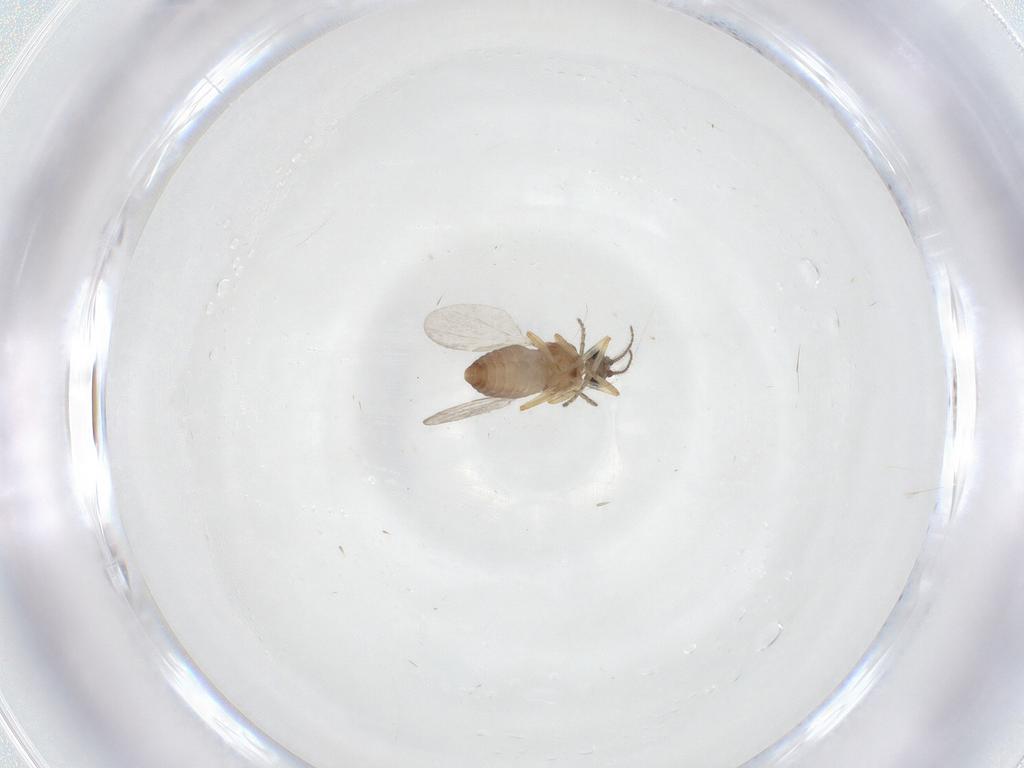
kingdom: Animalia
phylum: Arthropoda
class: Insecta
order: Diptera
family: Ceratopogonidae
